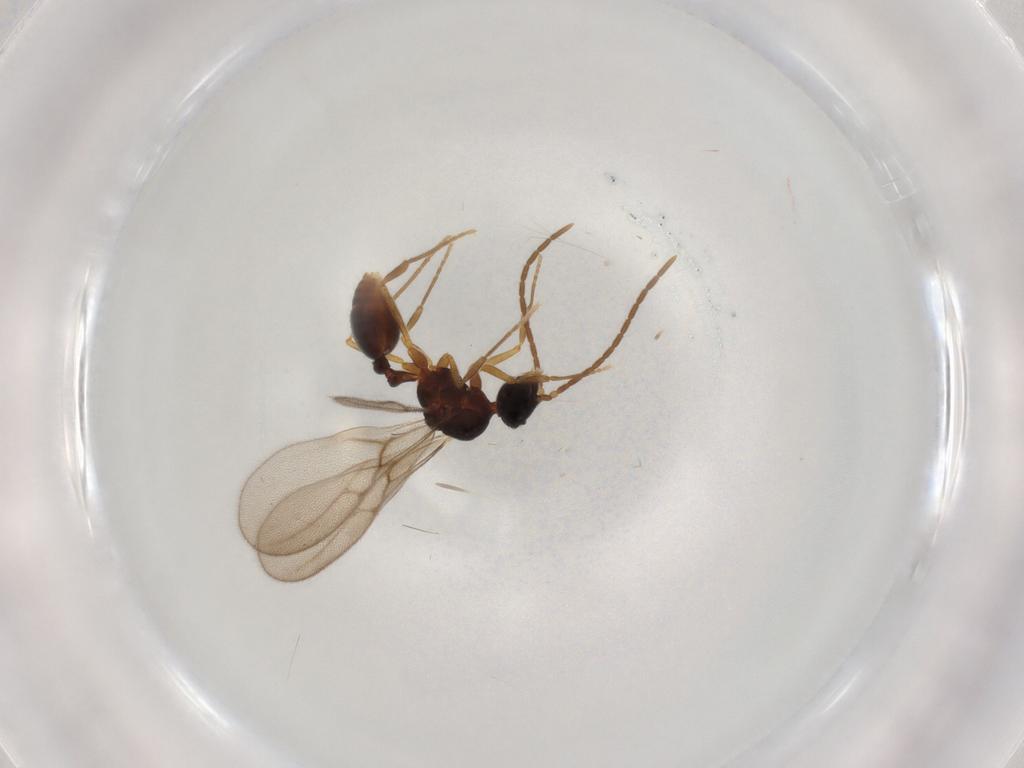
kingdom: Animalia
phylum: Arthropoda
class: Insecta
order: Hymenoptera
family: Formicidae
